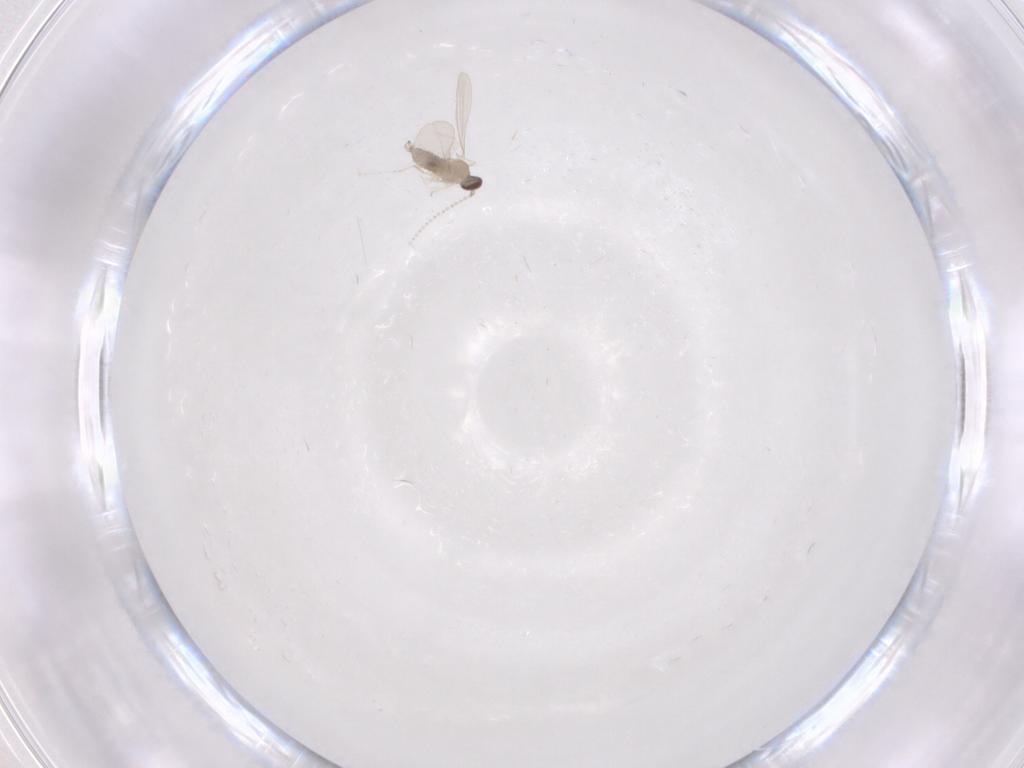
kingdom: Animalia
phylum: Arthropoda
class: Insecta
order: Diptera
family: Cecidomyiidae
